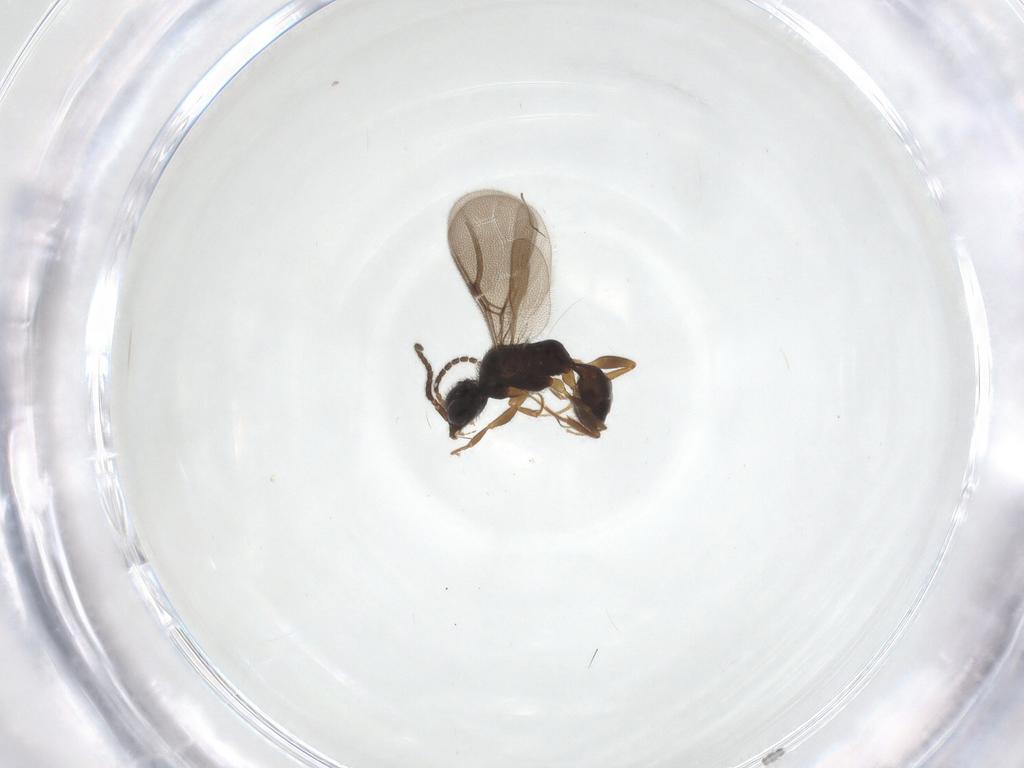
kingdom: Animalia
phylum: Arthropoda
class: Insecta
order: Hymenoptera
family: Bethylidae
